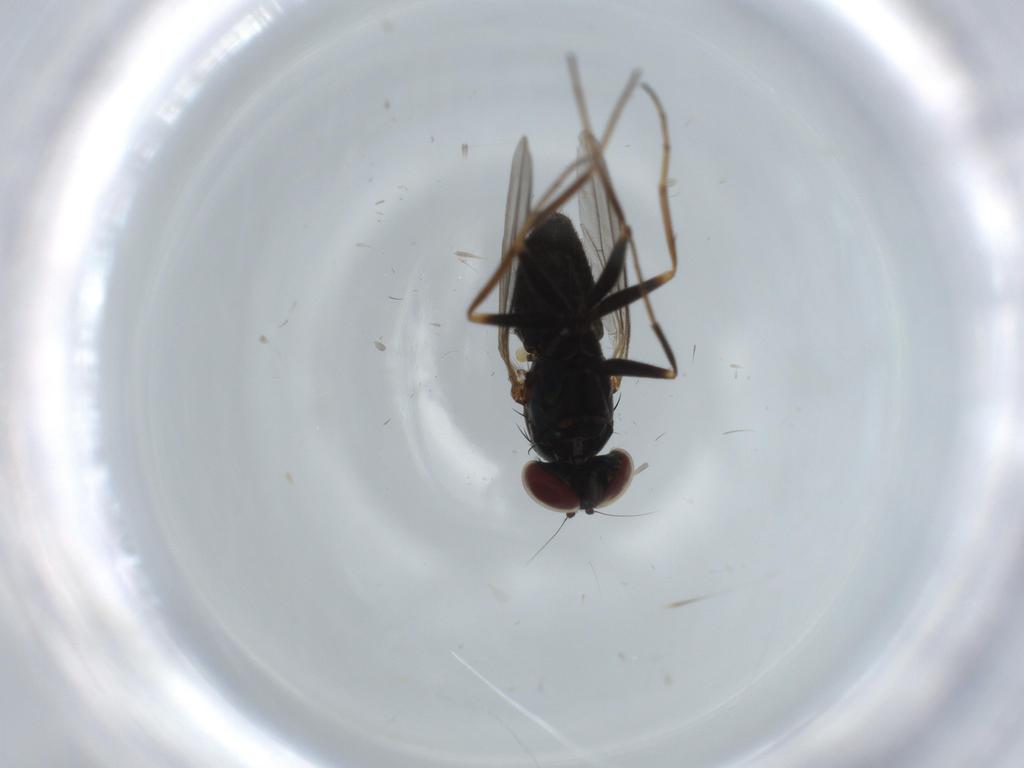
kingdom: Animalia
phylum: Arthropoda
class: Insecta
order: Diptera
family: Dolichopodidae
